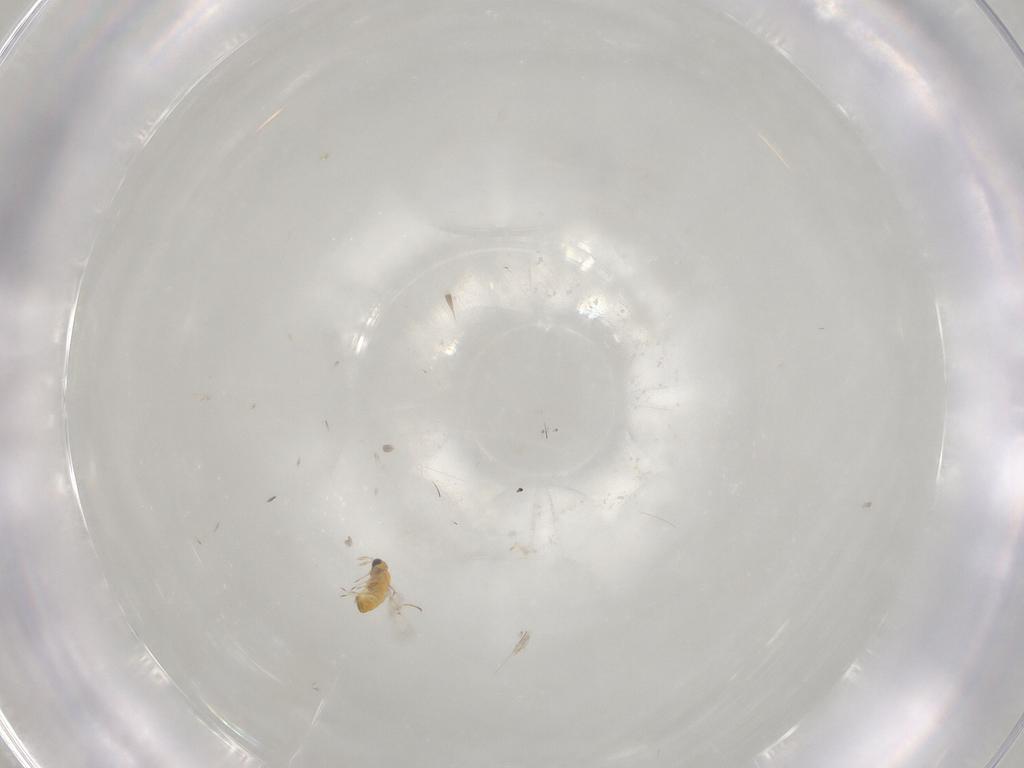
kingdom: Animalia
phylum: Arthropoda
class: Insecta
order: Hymenoptera
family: Trichogrammatidae
